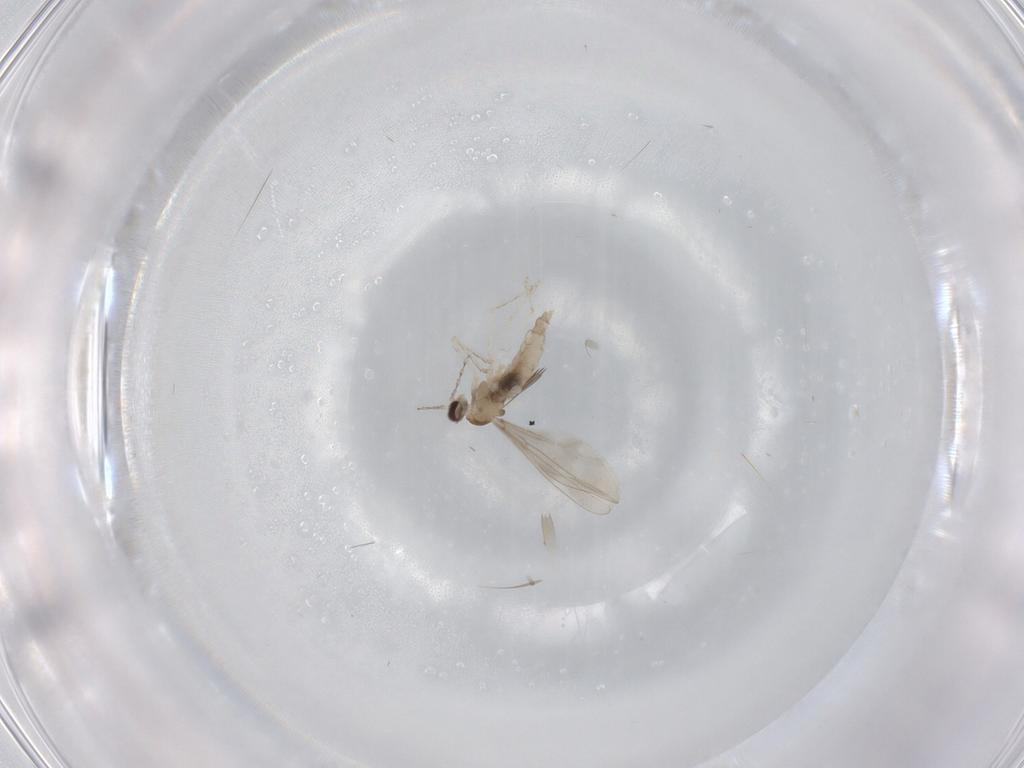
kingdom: Animalia
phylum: Arthropoda
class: Insecta
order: Diptera
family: Cecidomyiidae
